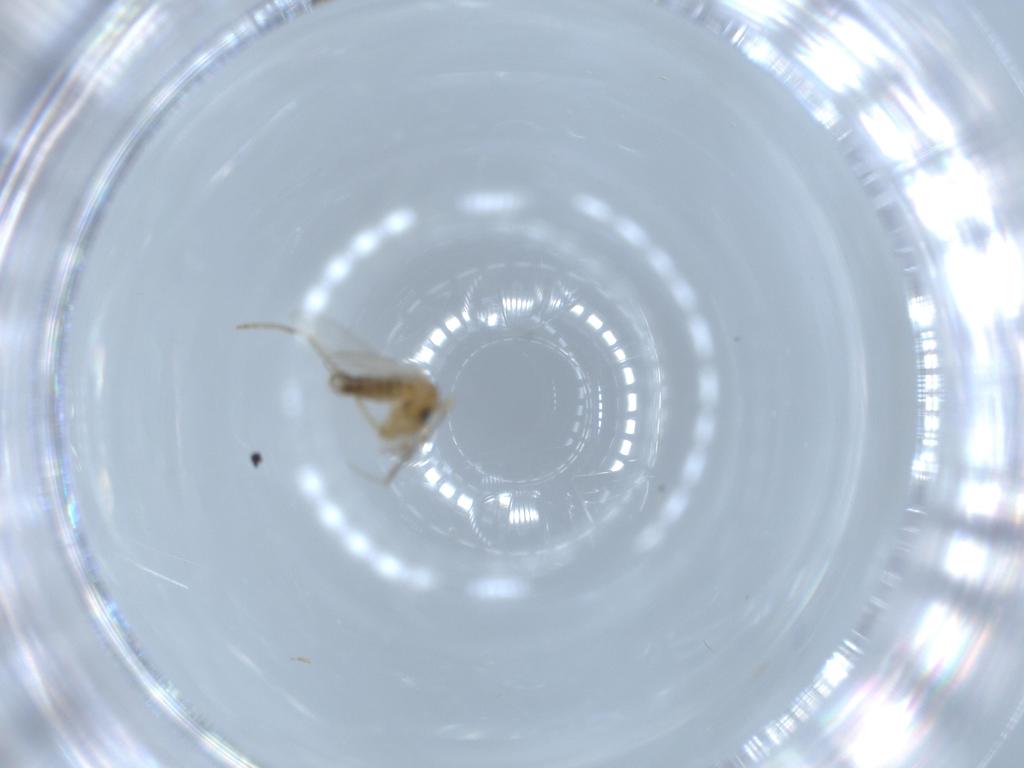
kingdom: Animalia
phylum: Arthropoda
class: Insecta
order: Diptera
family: Psychodidae
